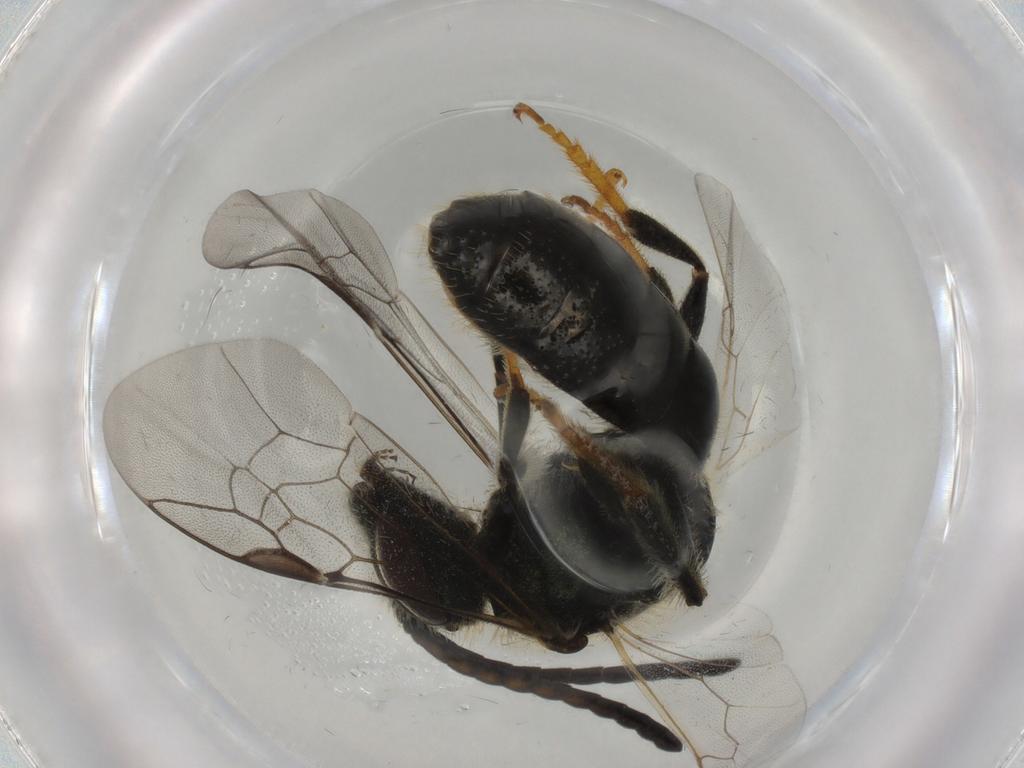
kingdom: Animalia
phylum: Arthropoda
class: Insecta
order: Hymenoptera
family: Halictidae
